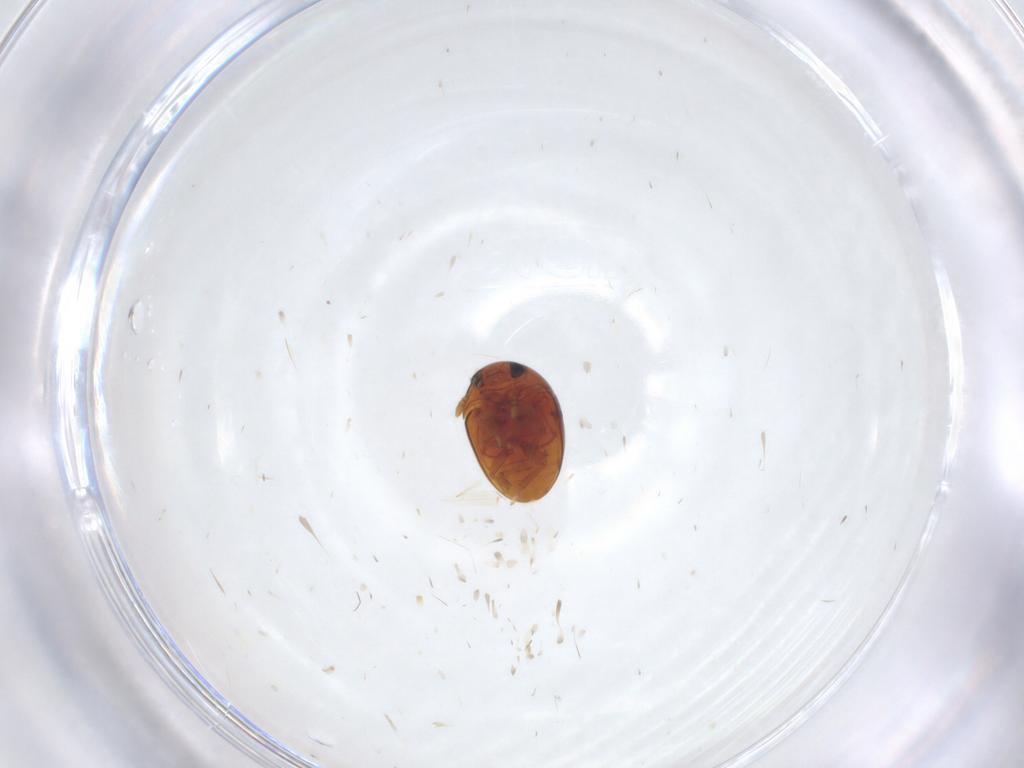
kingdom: Animalia
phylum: Arthropoda
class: Insecta
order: Coleoptera
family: Phalacridae
